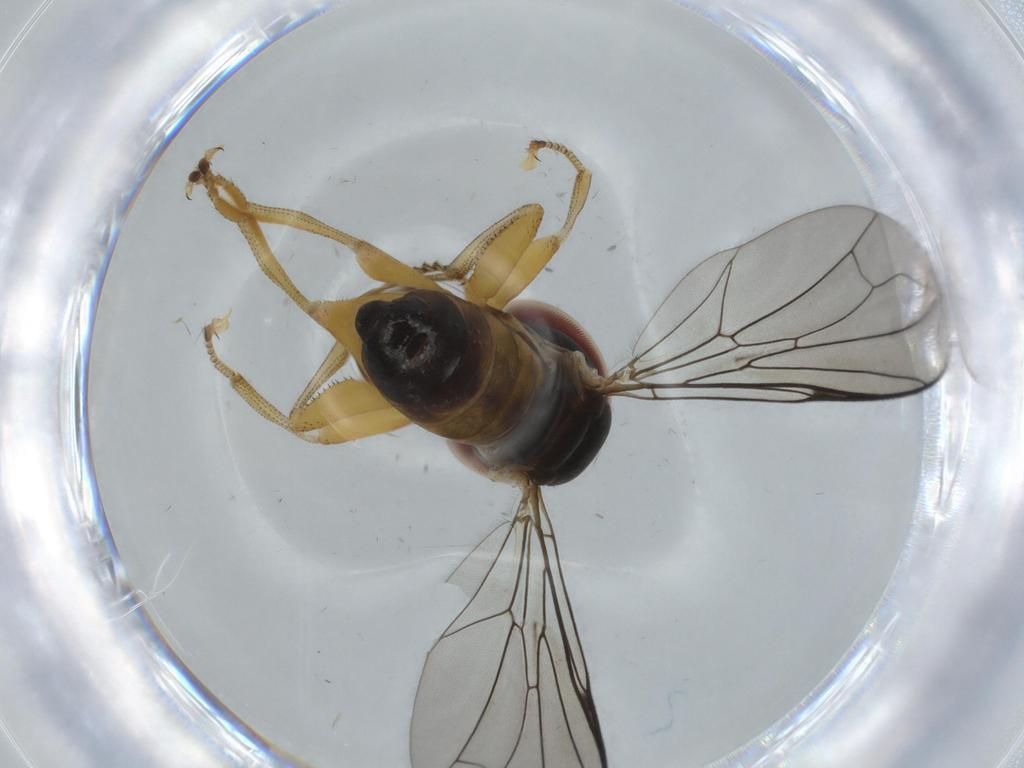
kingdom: Animalia
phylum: Arthropoda
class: Insecta
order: Diptera
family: Pipunculidae
